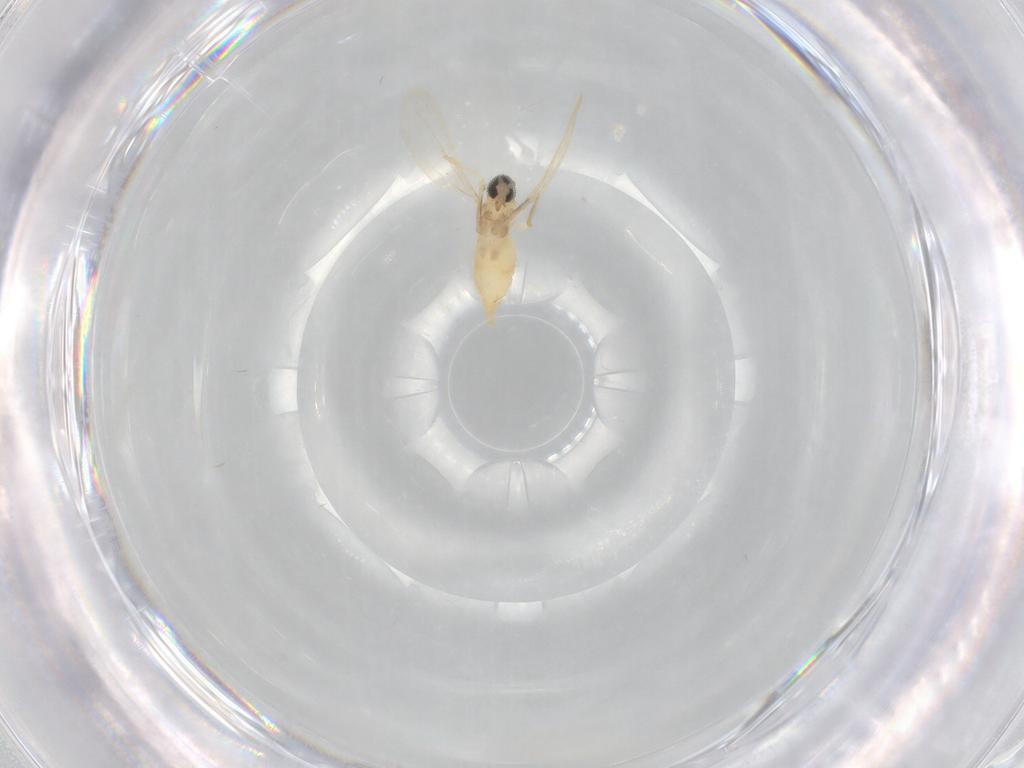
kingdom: Animalia
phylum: Arthropoda
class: Insecta
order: Diptera
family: Cecidomyiidae
